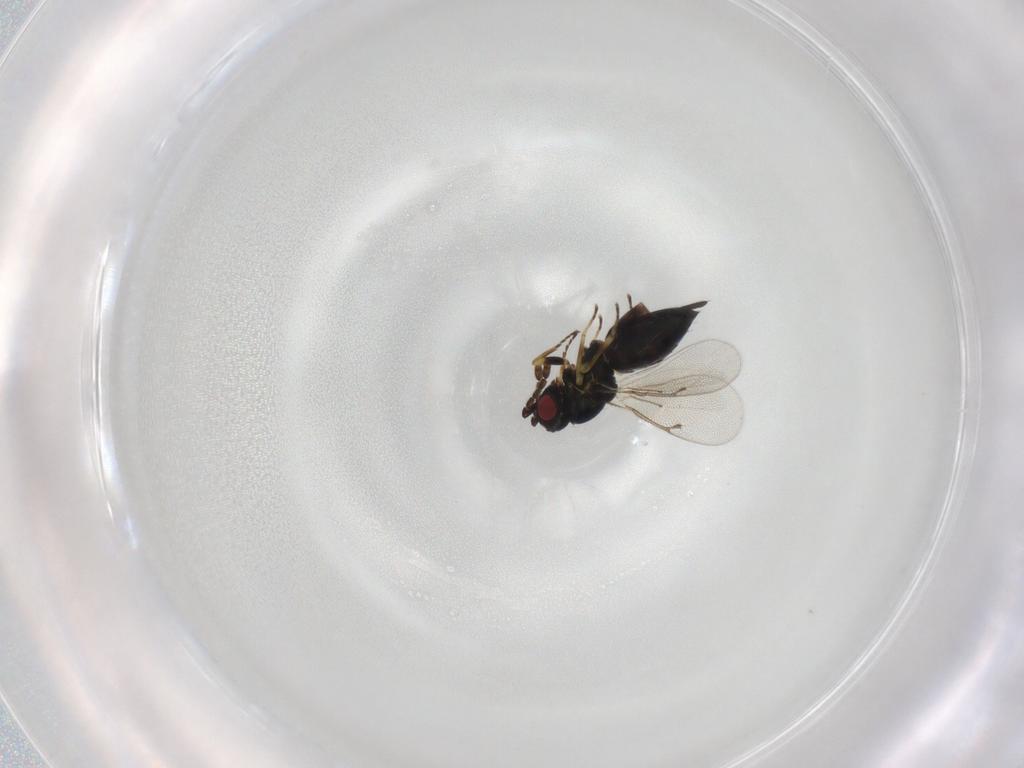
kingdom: Animalia
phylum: Arthropoda
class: Insecta
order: Hymenoptera
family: Eulophidae
